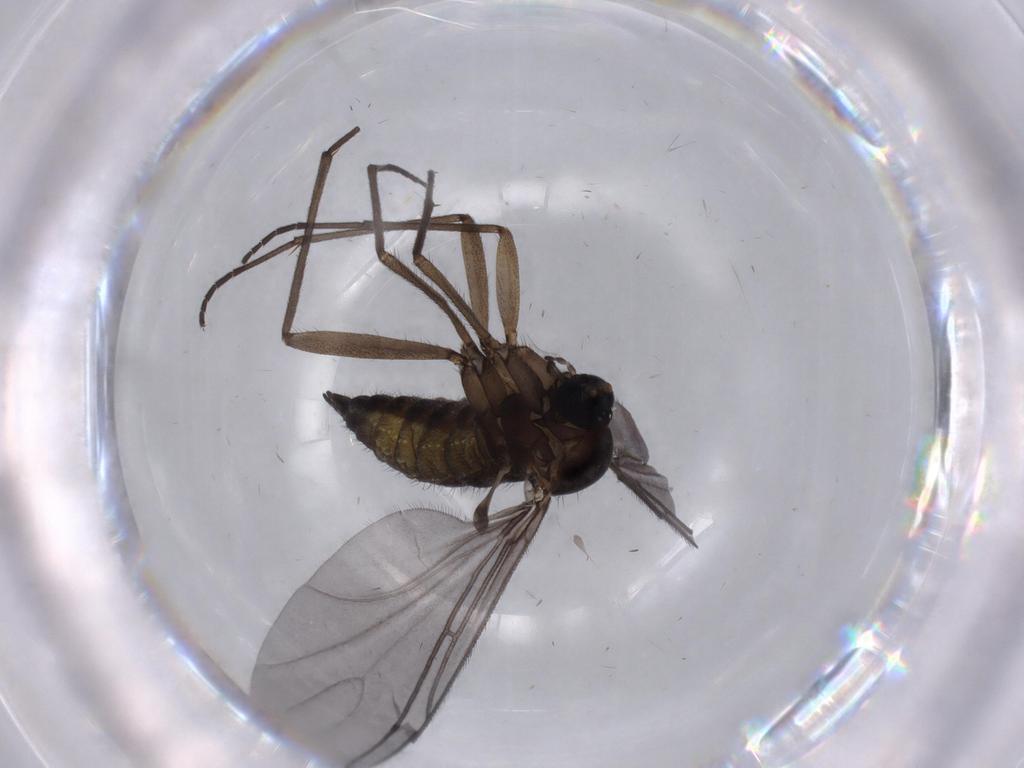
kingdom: Animalia
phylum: Arthropoda
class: Insecta
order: Diptera
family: Sciaridae
